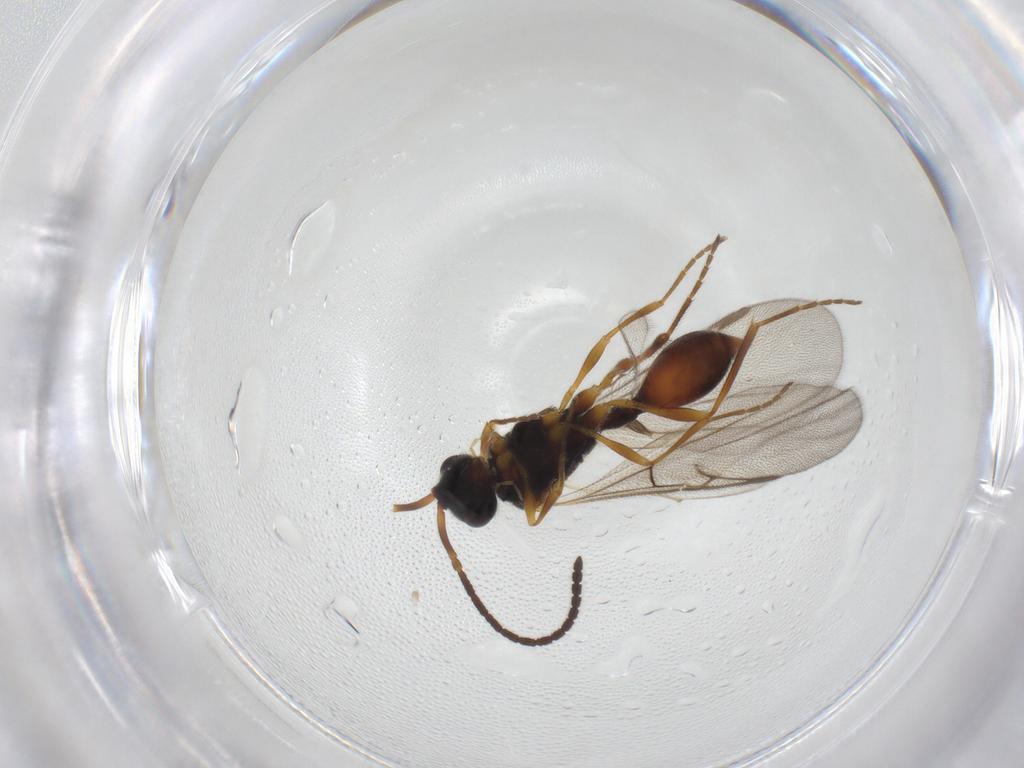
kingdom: Animalia
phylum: Arthropoda
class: Insecta
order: Hymenoptera
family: Diapriidae
